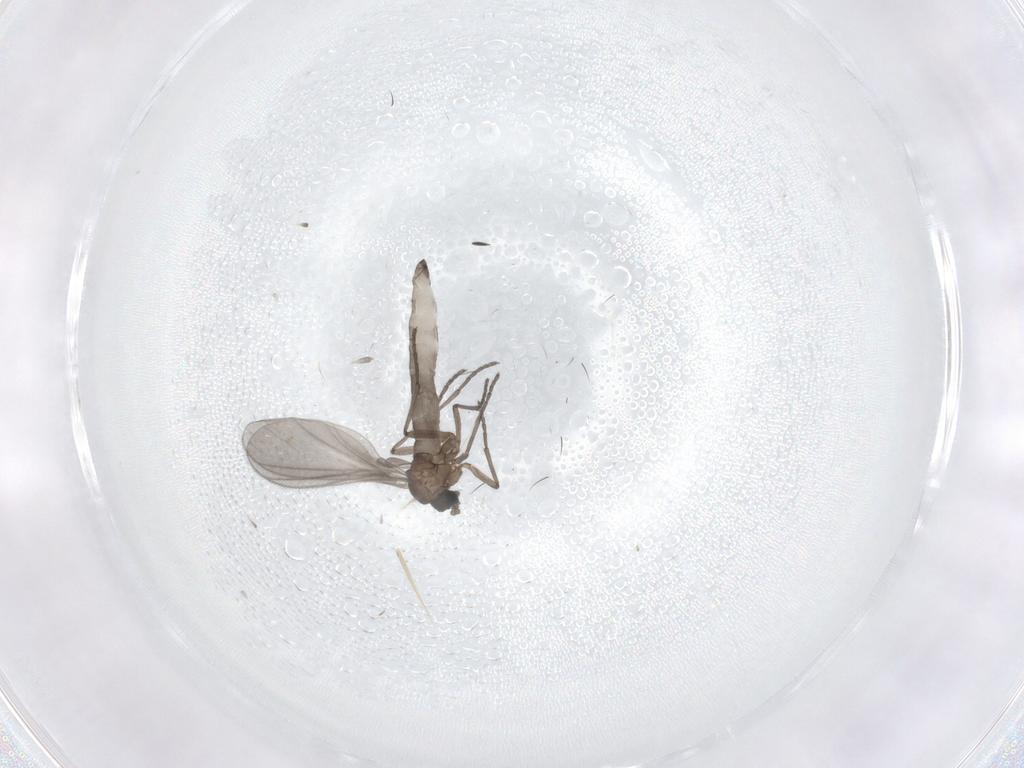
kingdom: Animalia
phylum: Arthropoda
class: Insecta
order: Diptera
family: Sciaridae
